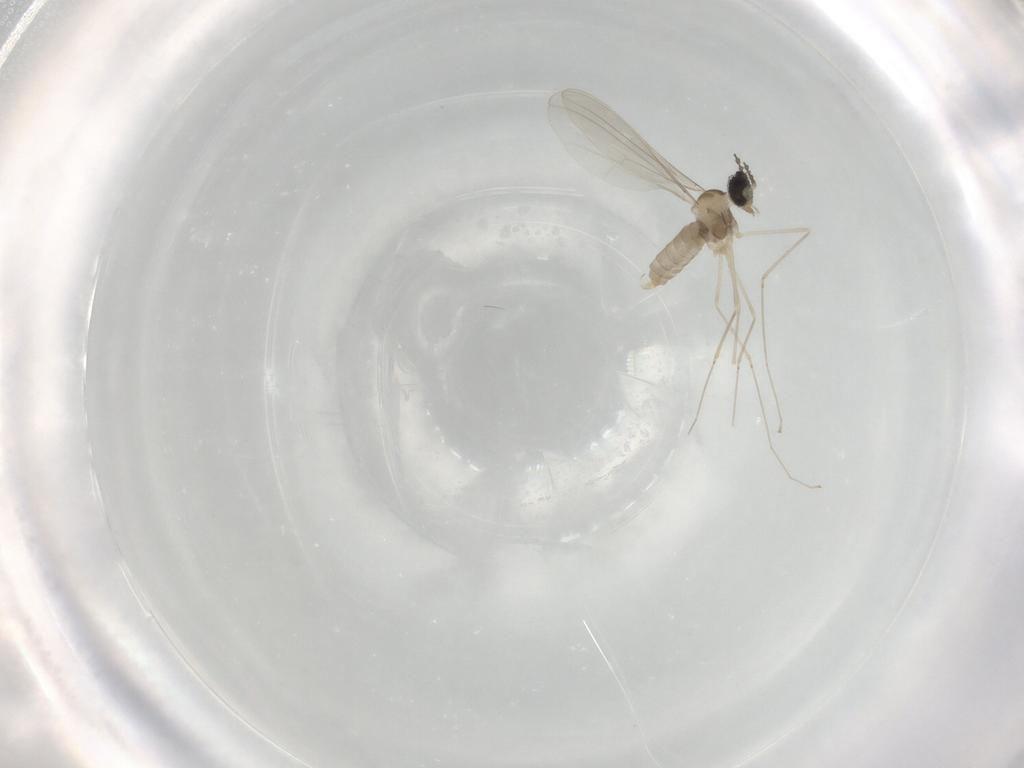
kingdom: Animalia
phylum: Arthropoda
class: Insecta
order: Diptera
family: Cecidomyiidae
